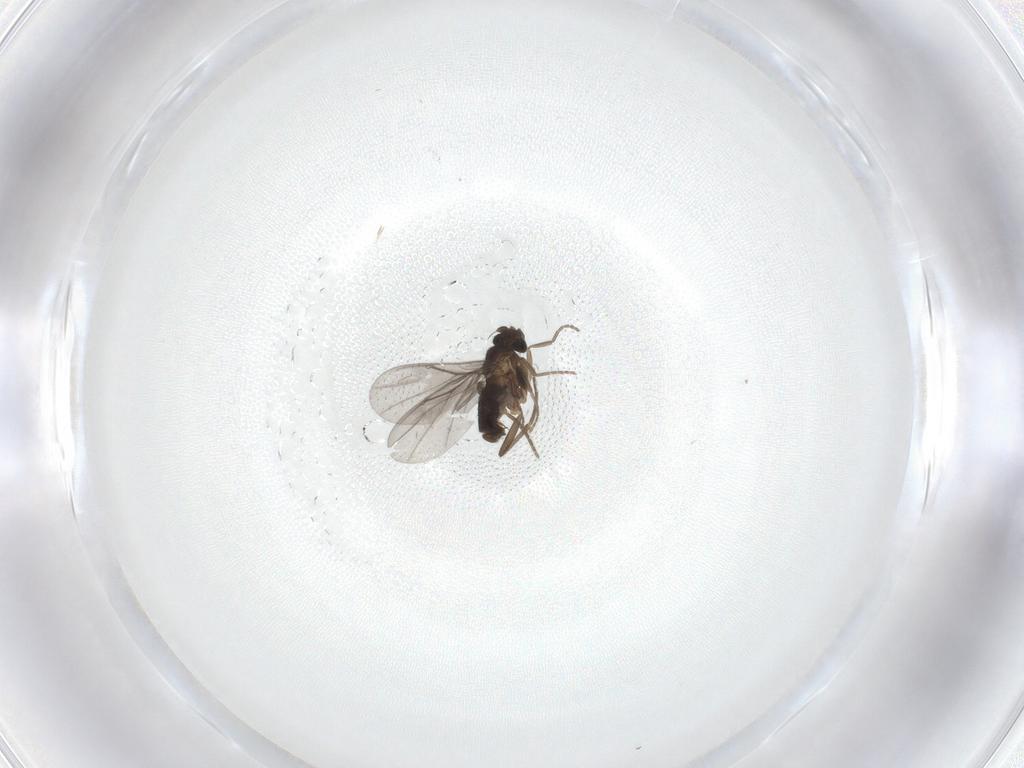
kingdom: Animalia
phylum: Arthropoda
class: Insecta
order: Diptera
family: Phoridae
